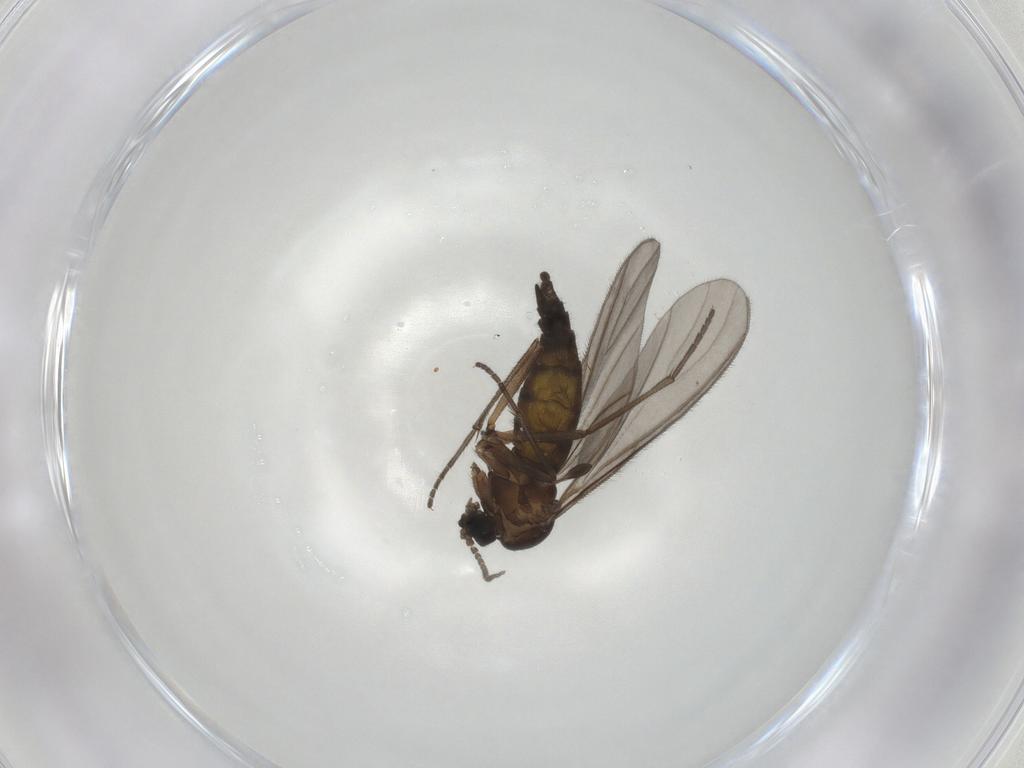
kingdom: Animalia
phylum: Arthropoda
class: Insecta
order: Diptera
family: Sciaridae
